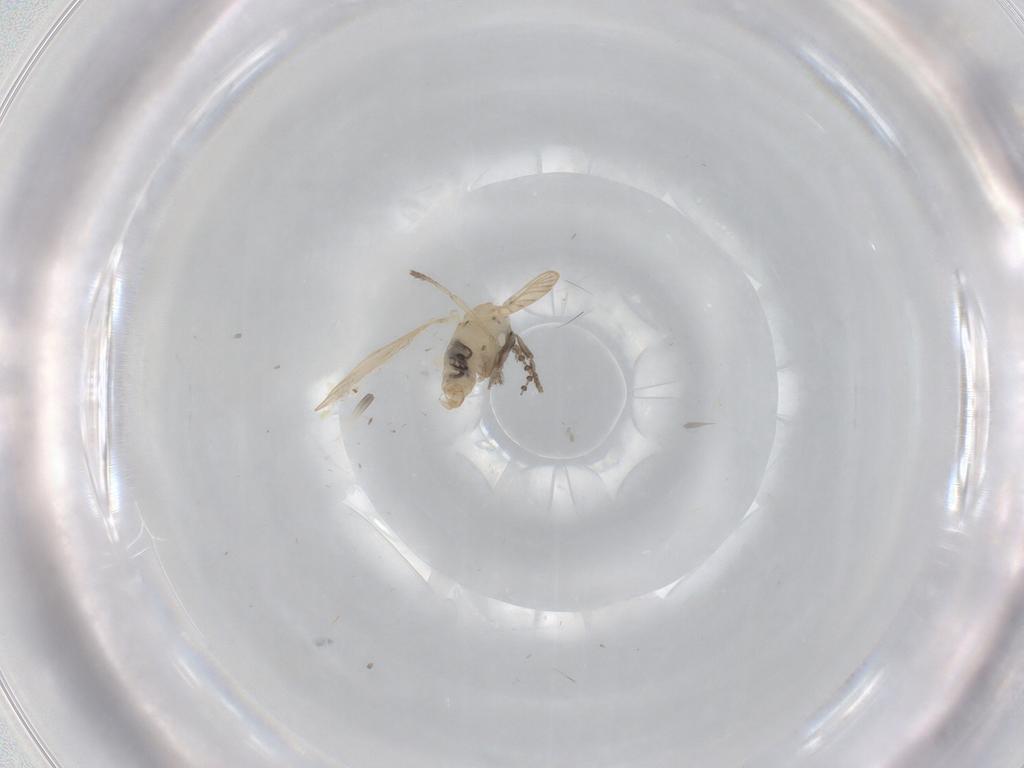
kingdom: Animalia
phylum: Arthropoda
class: Insecta
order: Diptera
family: Psychodidae
